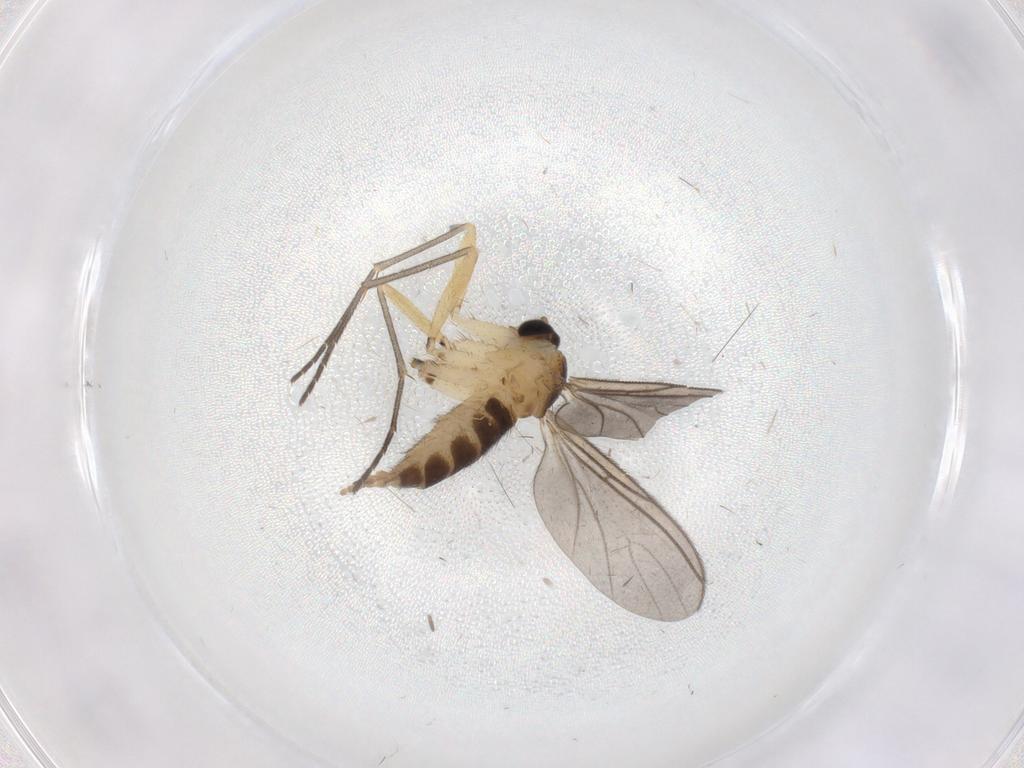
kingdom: Animalia
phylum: Arthropoda
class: Insecta
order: Diptera
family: Sciaridae
